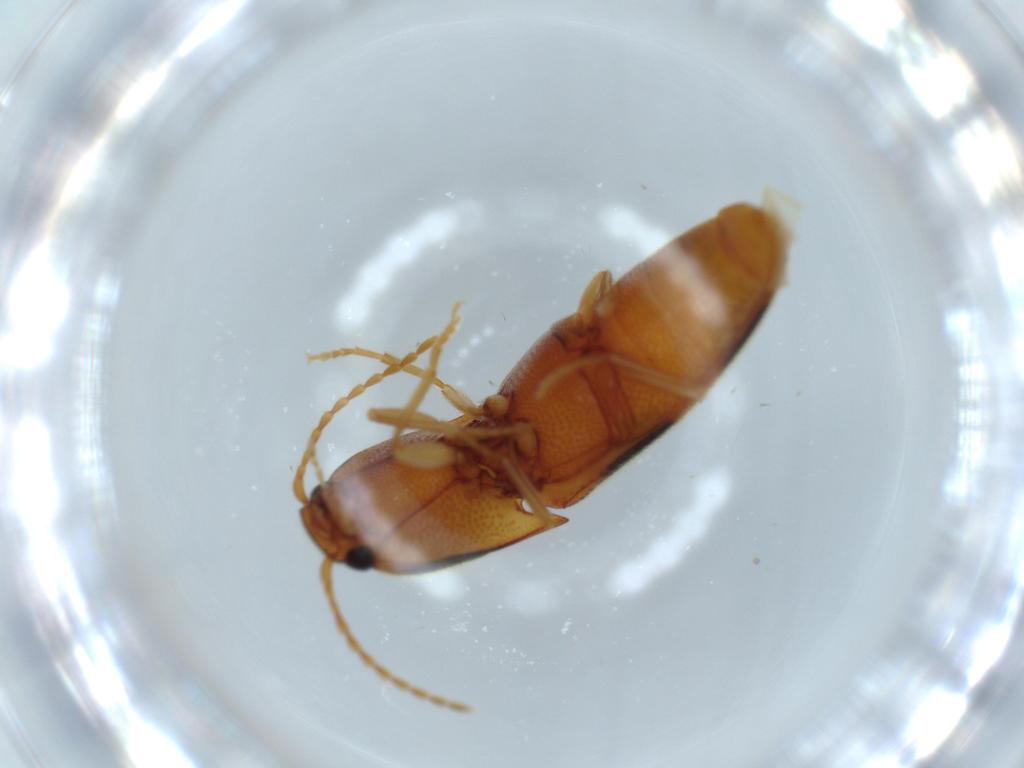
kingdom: Animalia
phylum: Arthropoda
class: Insecta
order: Coleoptera
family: Elateridae
